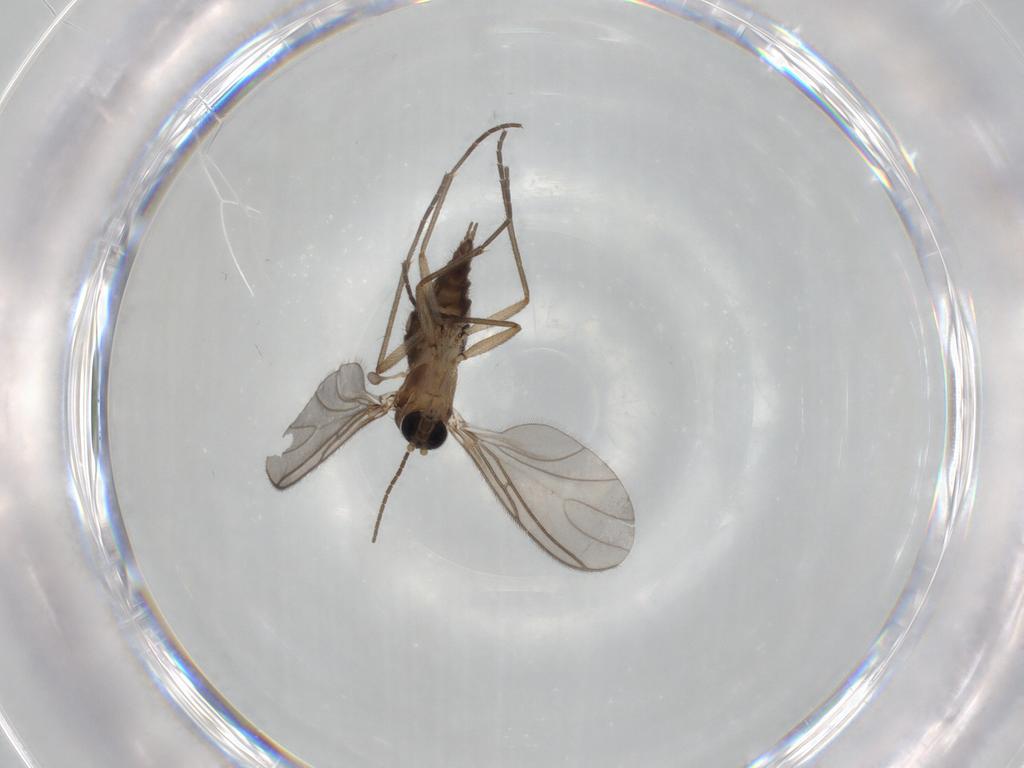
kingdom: Animalia
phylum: Arthropoda
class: Insecta
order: Diptera
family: Sciaridae
